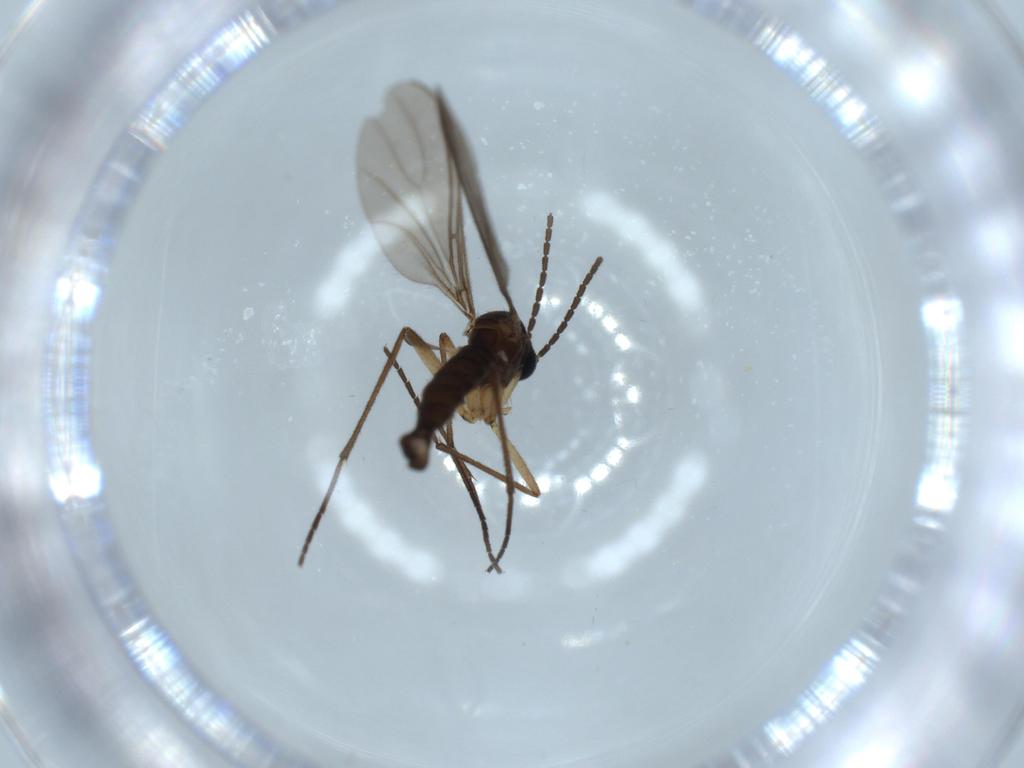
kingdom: Animalia
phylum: Arthropoda
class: Insecta
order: Diptera
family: Sciaridae
